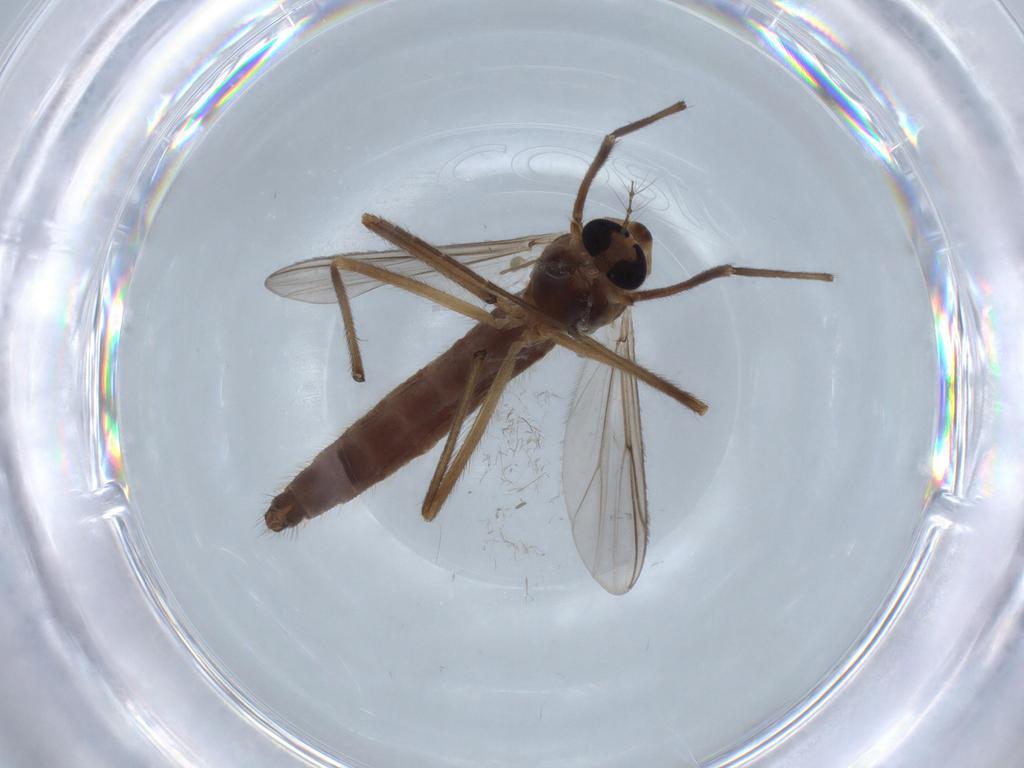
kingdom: Animalia
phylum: Arthropoda
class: Insecta
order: Diptera
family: Chironomidae
